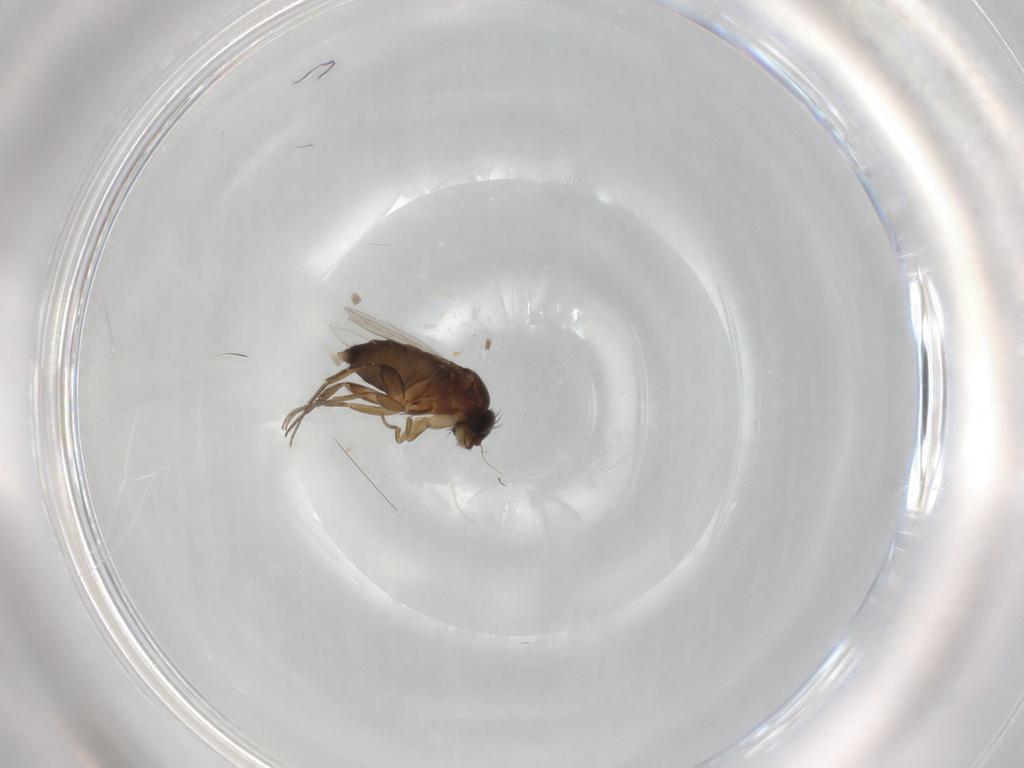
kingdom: Animalia
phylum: Arthropoda
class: Insecta
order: Diptera
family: Phoridae
